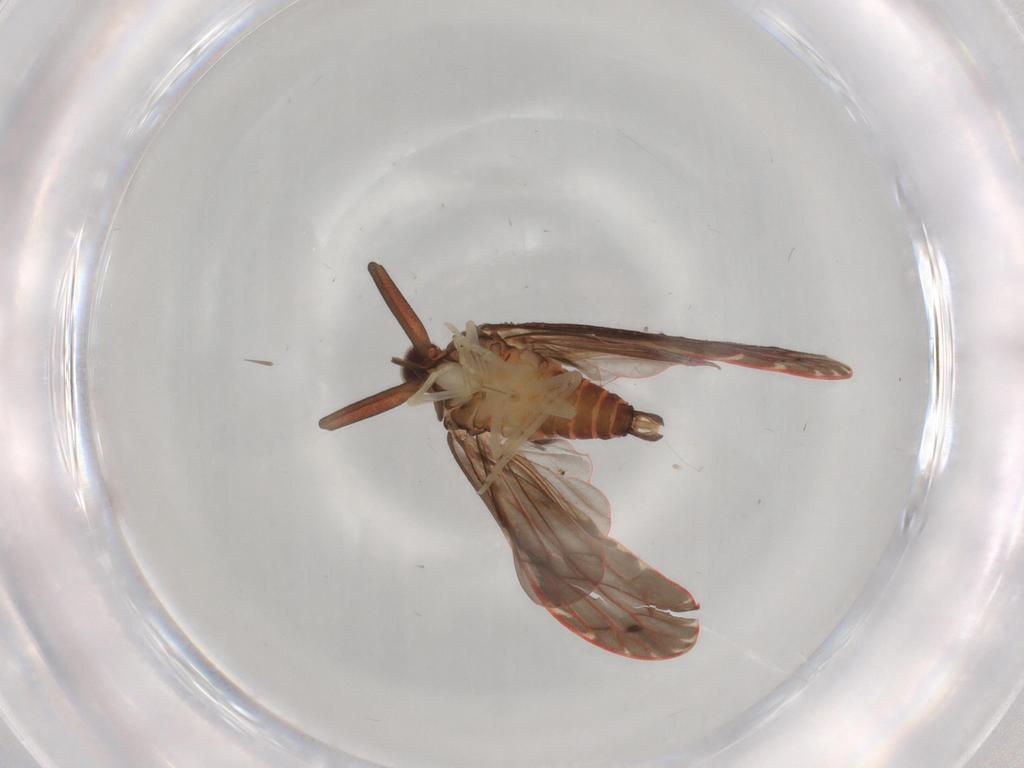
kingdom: Animalia
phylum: Arthropoda
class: Insecta
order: Hemiptera
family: Derbidae
